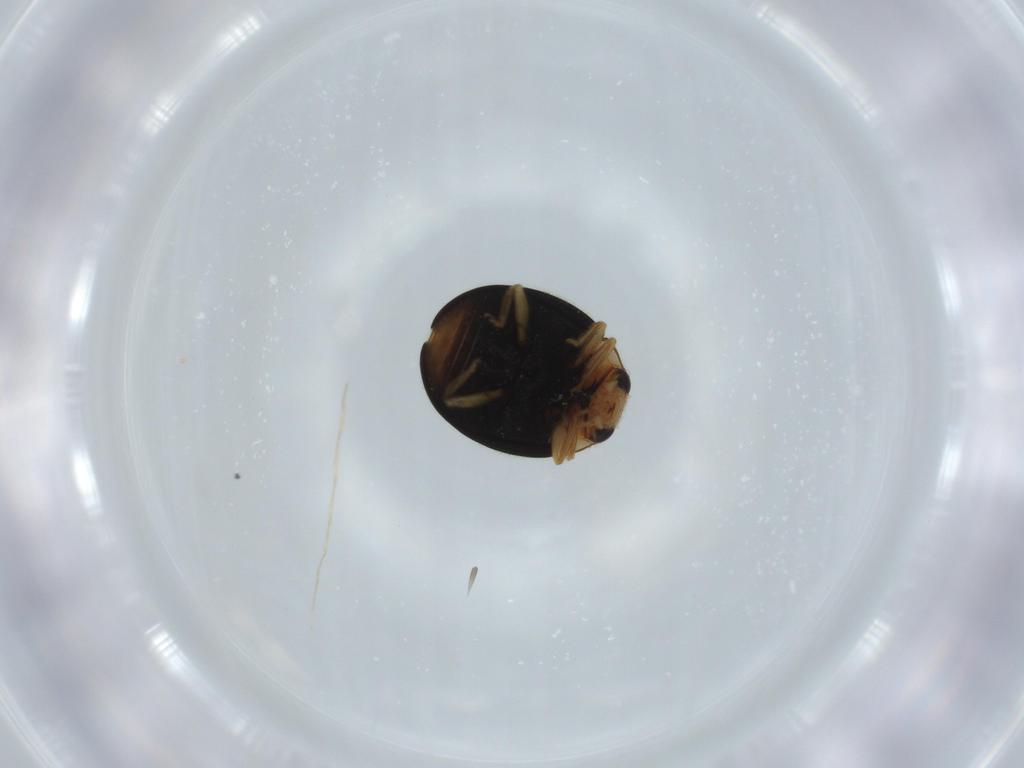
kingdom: Animalia
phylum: Arthropoda
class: Insecta
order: Coleoptera
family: Coccinellidae
